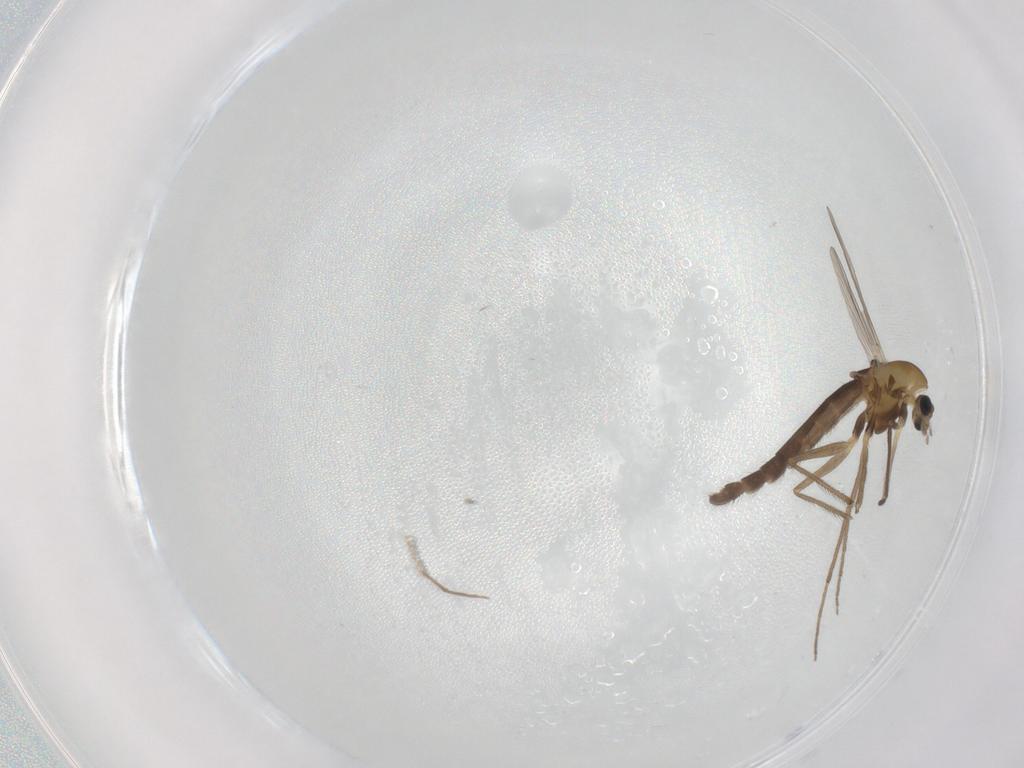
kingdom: Animalia
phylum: Arthropoda
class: Insecta
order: Diptera
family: Chironomidae
